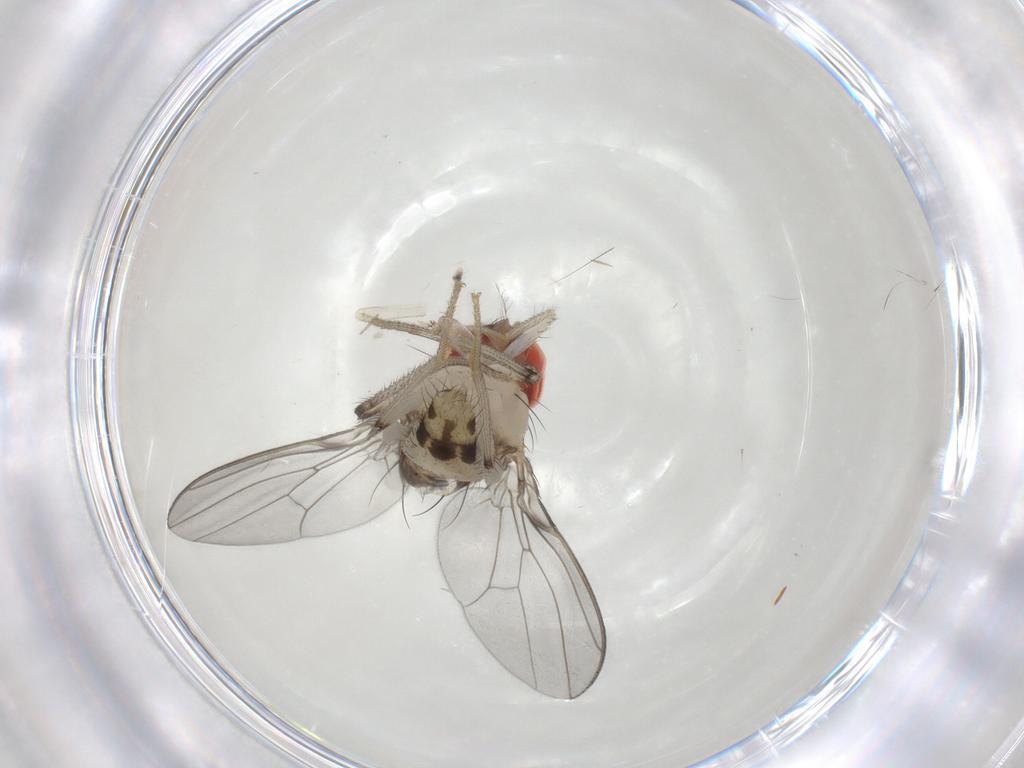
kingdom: Animalia
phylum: Arthropoda
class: Insecta
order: Diptera
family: Drosophilidae
